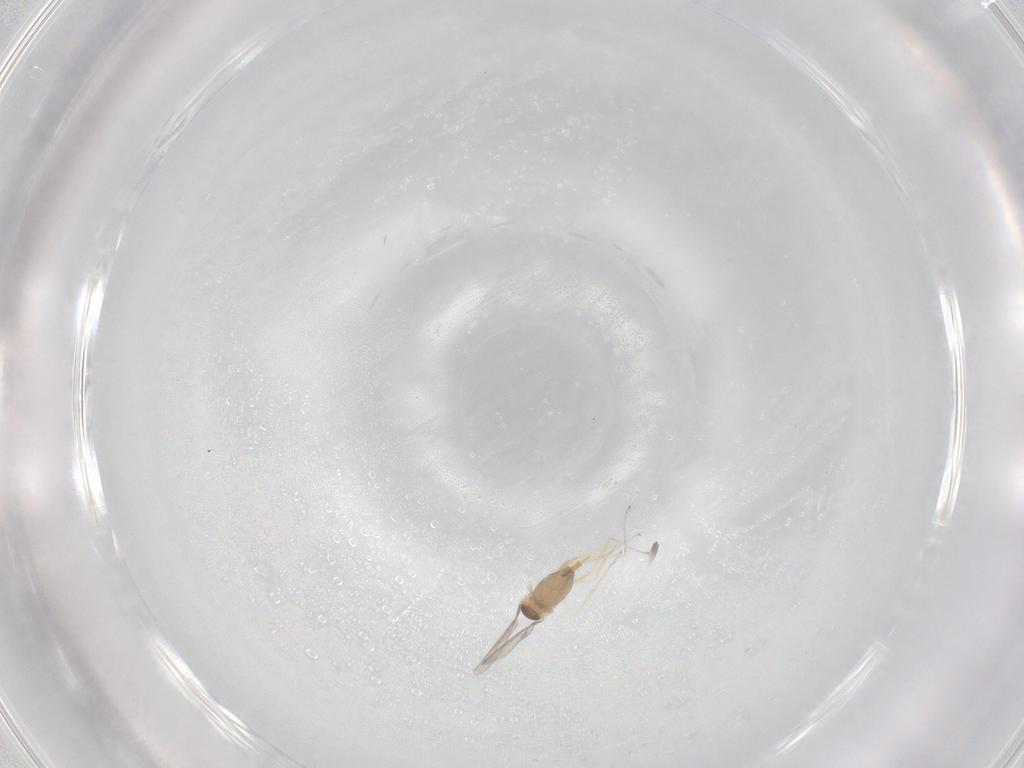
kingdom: Animalia
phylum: Arthropoda
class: Insecta
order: Diptera
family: Cecidomyiidae
